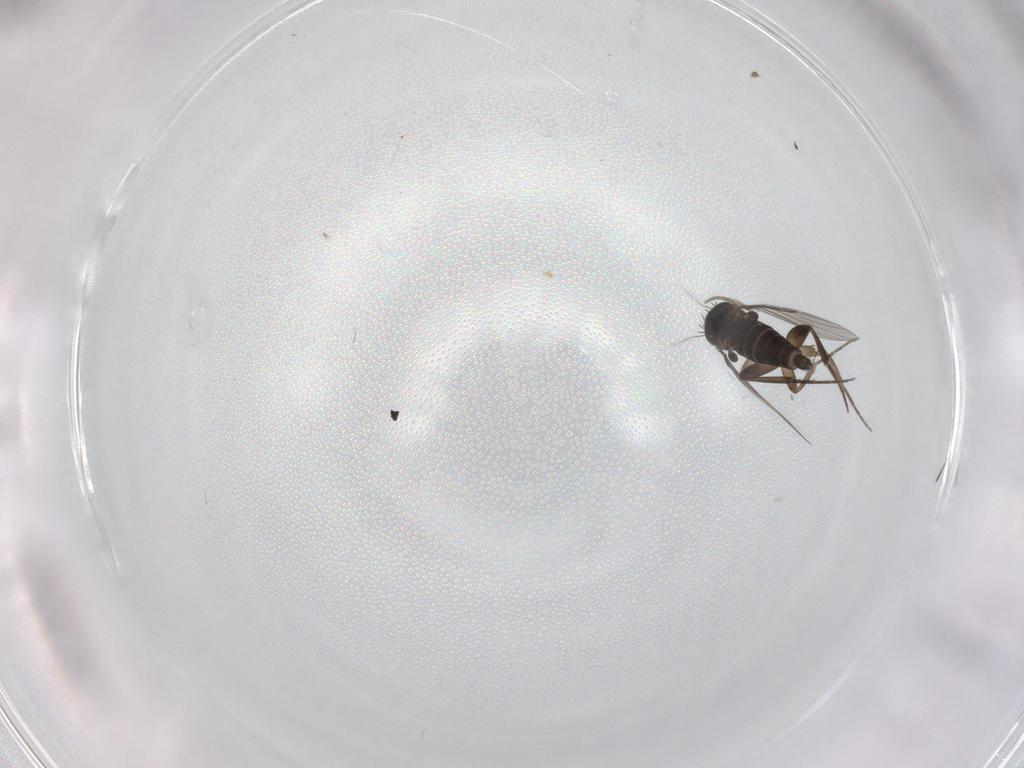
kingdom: Animalia
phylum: Arthropoda
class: Insecta
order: Diptera
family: Phoridae
